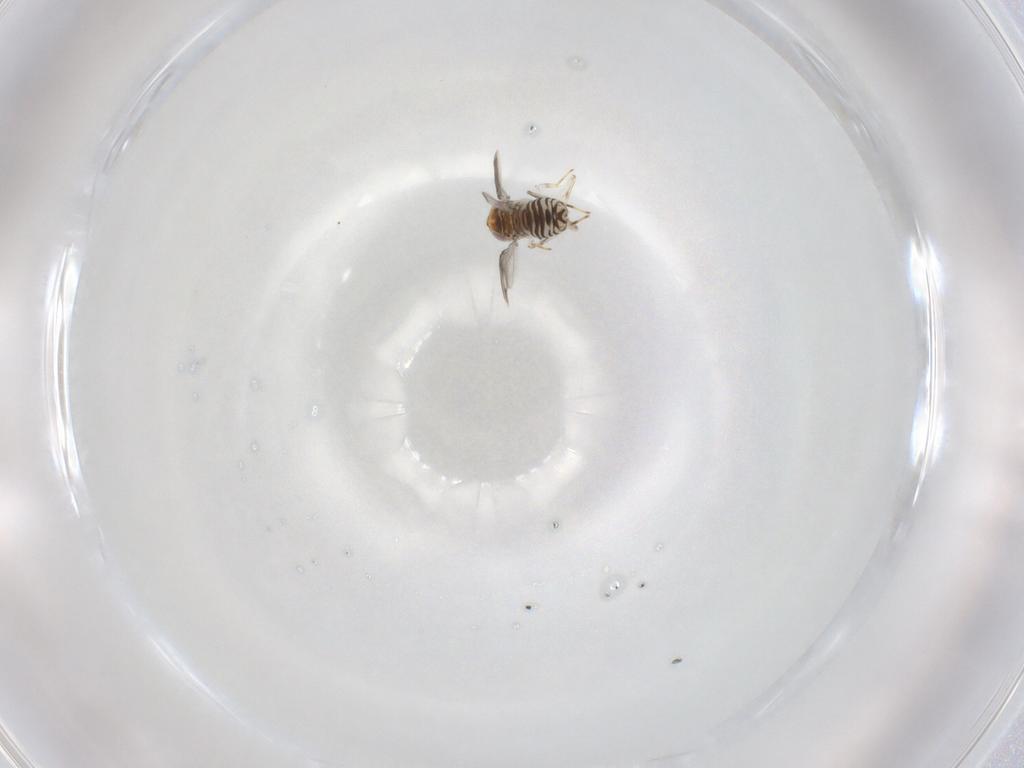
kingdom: Animalia
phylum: Arthropoda
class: Insecta
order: Hymenoptera
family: Aphelinidae
